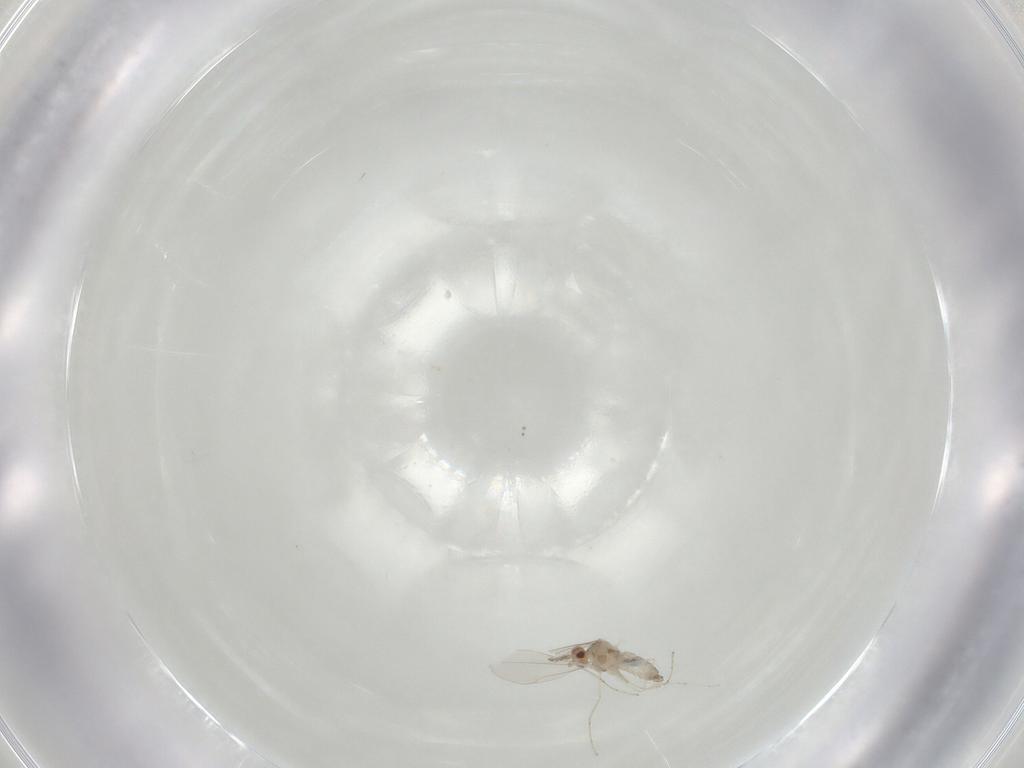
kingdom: Animalia
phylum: Arthropoda
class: Insecta
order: Diptera
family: Cecidomyiidae
